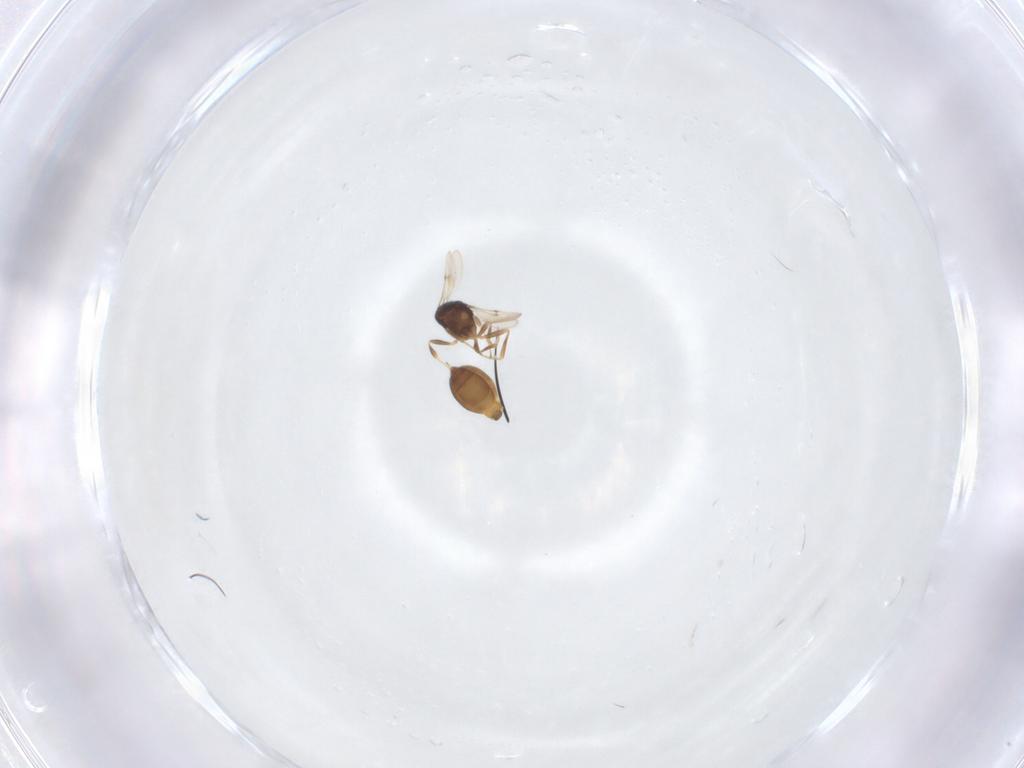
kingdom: Animalia
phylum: Arthropoda
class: Insecta
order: Hymenoptera
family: Scelionidae
